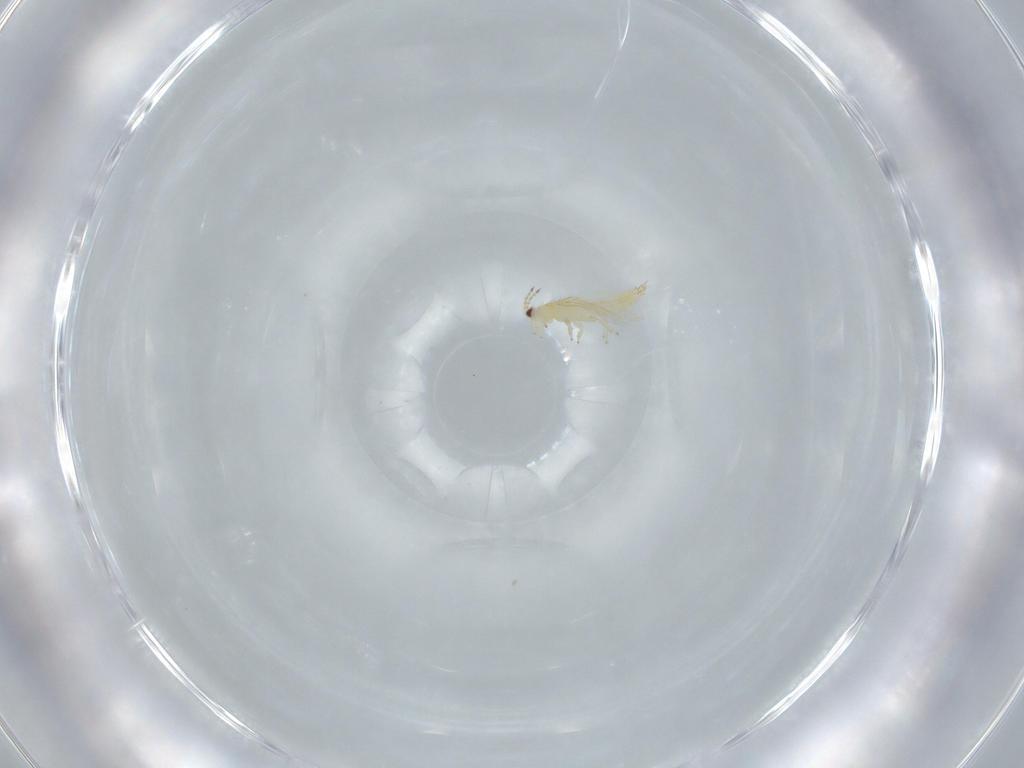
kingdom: Animalia
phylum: Arthropoda
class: Insecta
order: Thysanoptera
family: Thripidae
